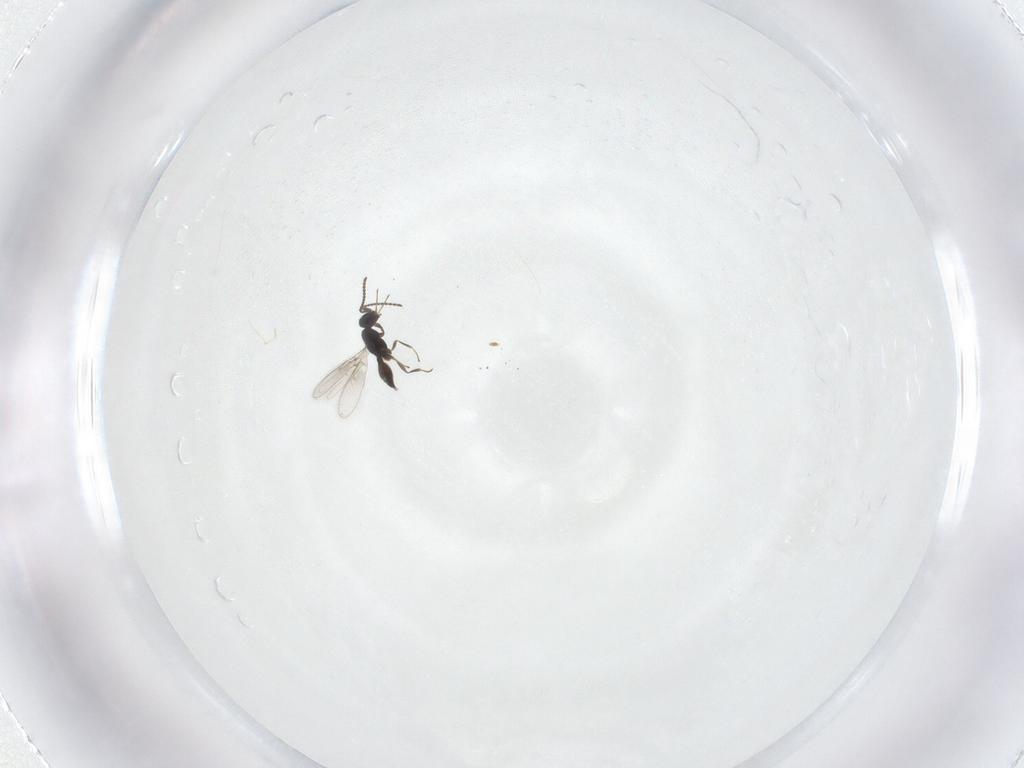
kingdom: Animalia
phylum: Arthropoda
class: Insecta
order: Hymenoptera
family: Scelionidae
